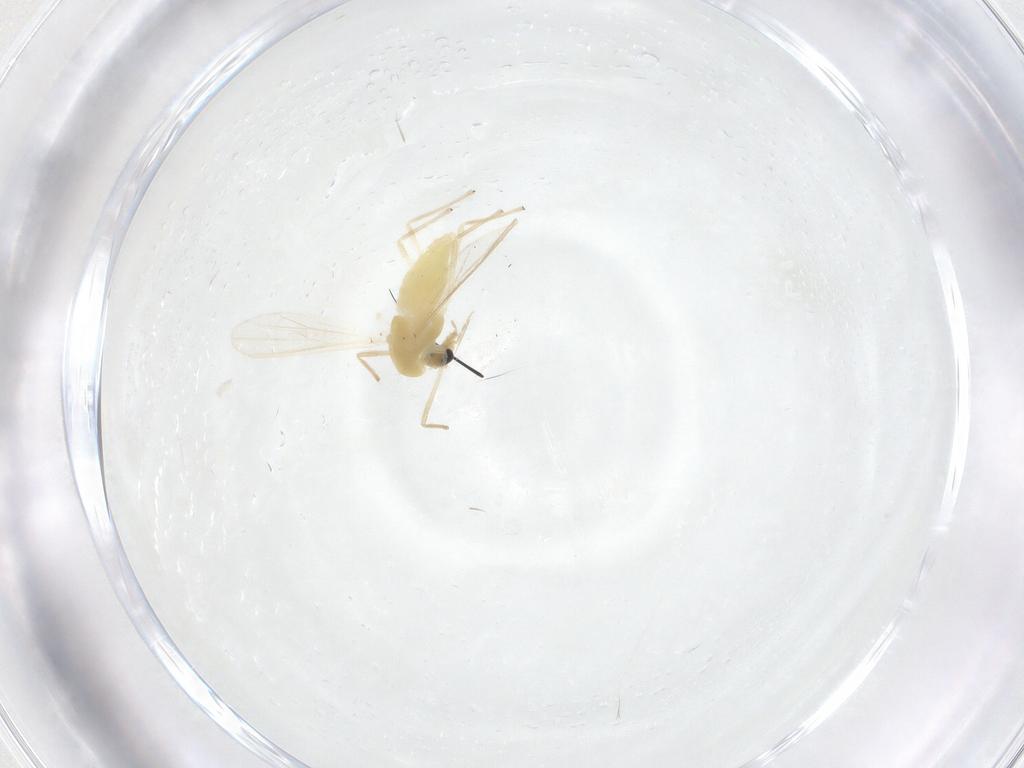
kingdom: Animalia
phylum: Arthropoda
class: Insecta
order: Diptera
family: Chironomidae
